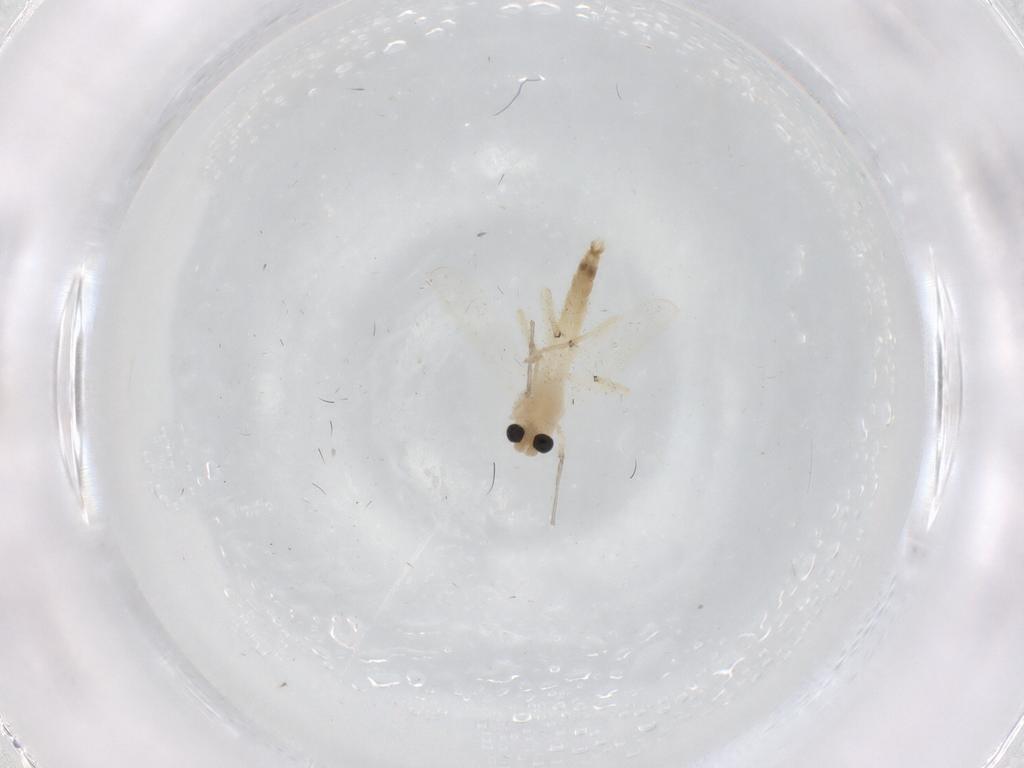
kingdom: Animalia
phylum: Arthropoda
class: Insecta
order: Diptera
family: Chironomidae
